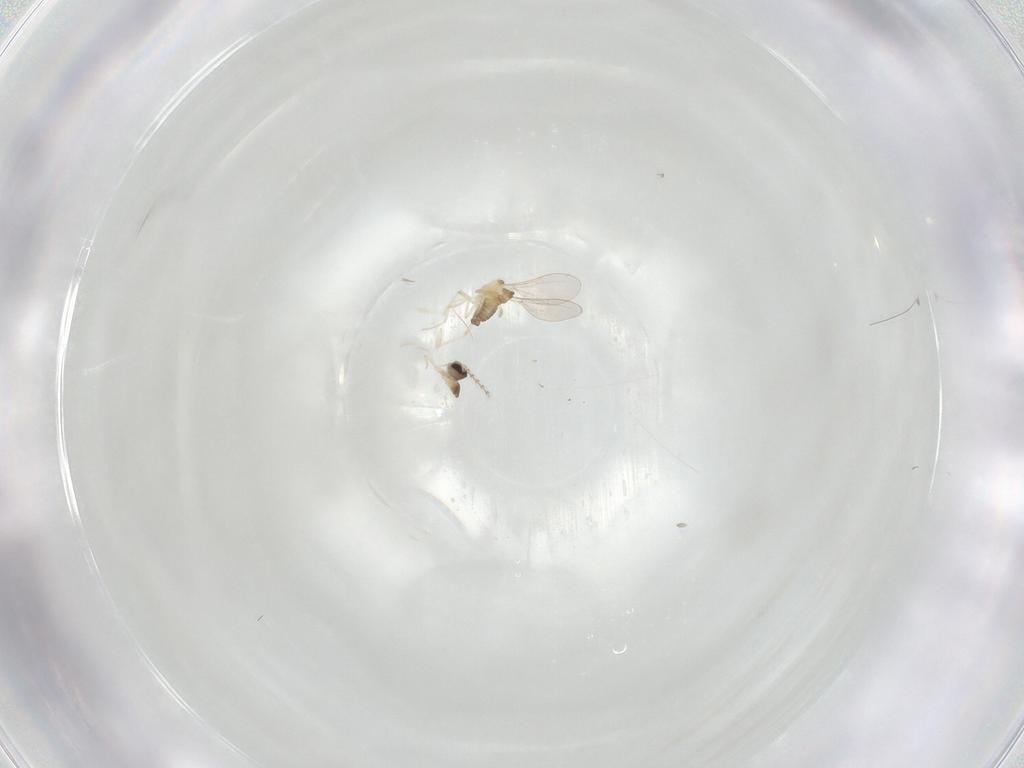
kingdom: Animalia
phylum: Arthropoda
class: Insecta
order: Diptera
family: Cecidomyiidae
